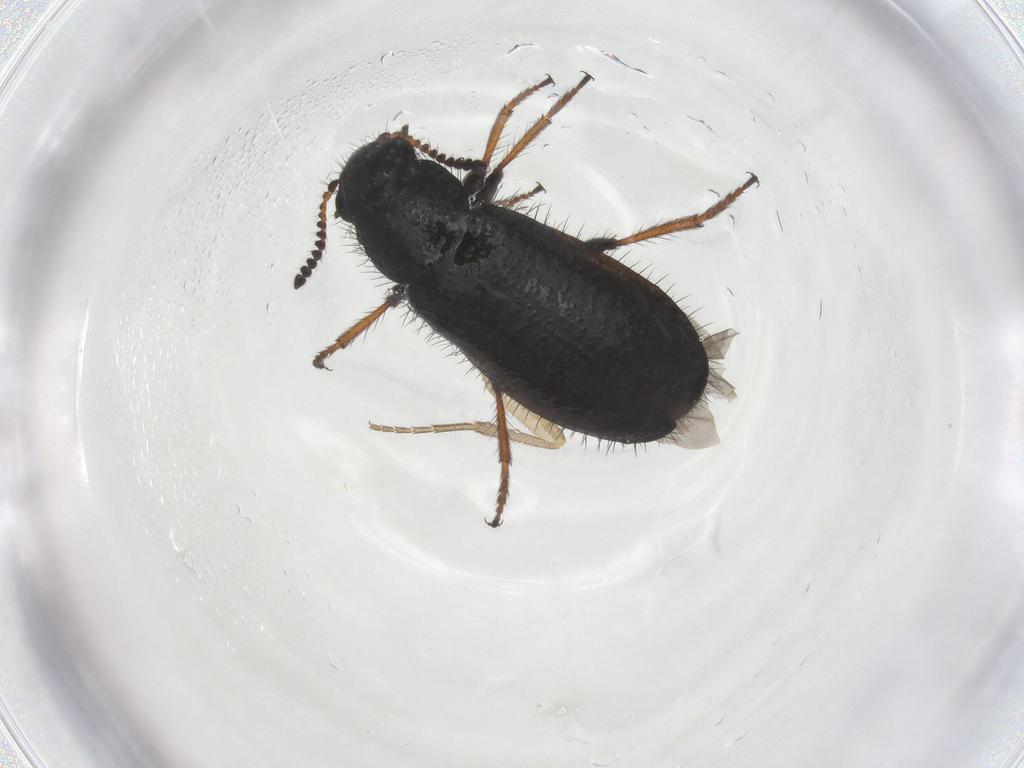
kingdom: Animalia
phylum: Arthropoda
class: Insecta
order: Coleoptera
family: Melyridae
